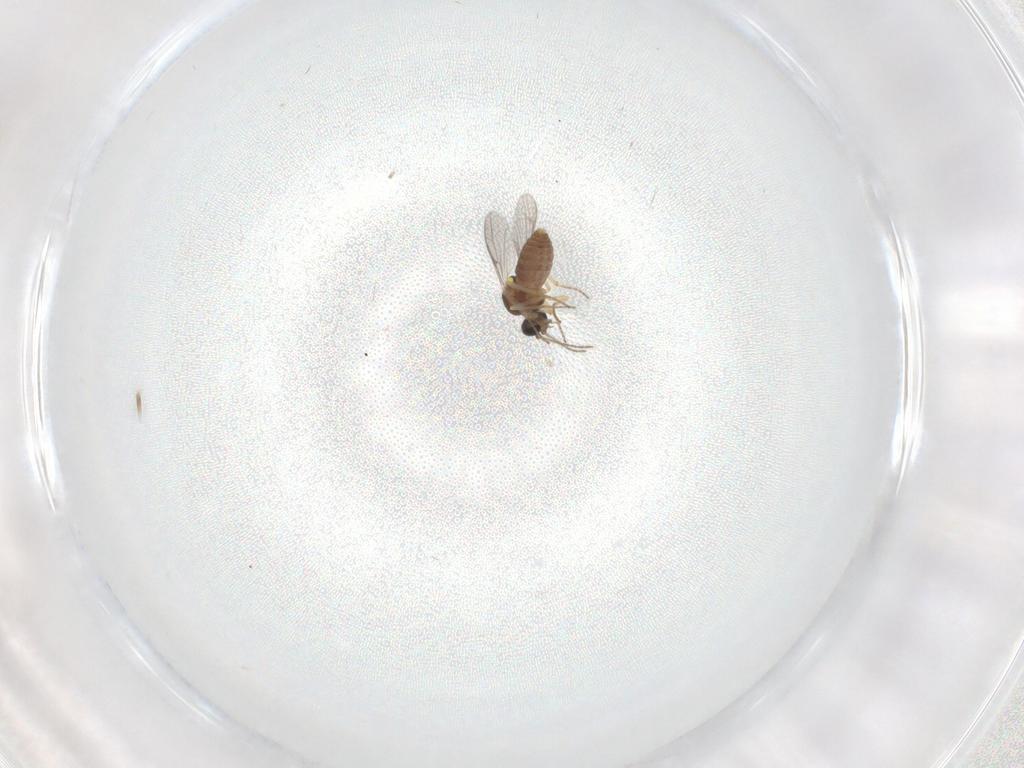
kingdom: Animalia
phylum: Arthropoda
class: Insecta
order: Diptera
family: Ceratopogonidae
